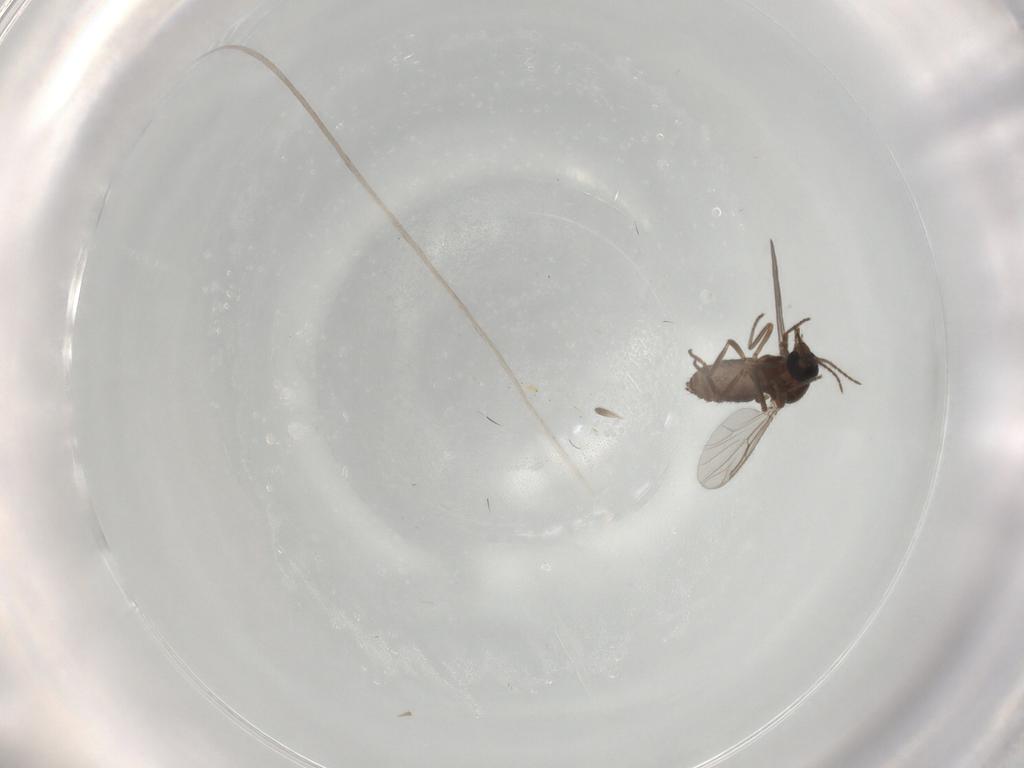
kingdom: Animalia
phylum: Arthropoda
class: Insecta
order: Diptera
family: Ceratopogonidae
